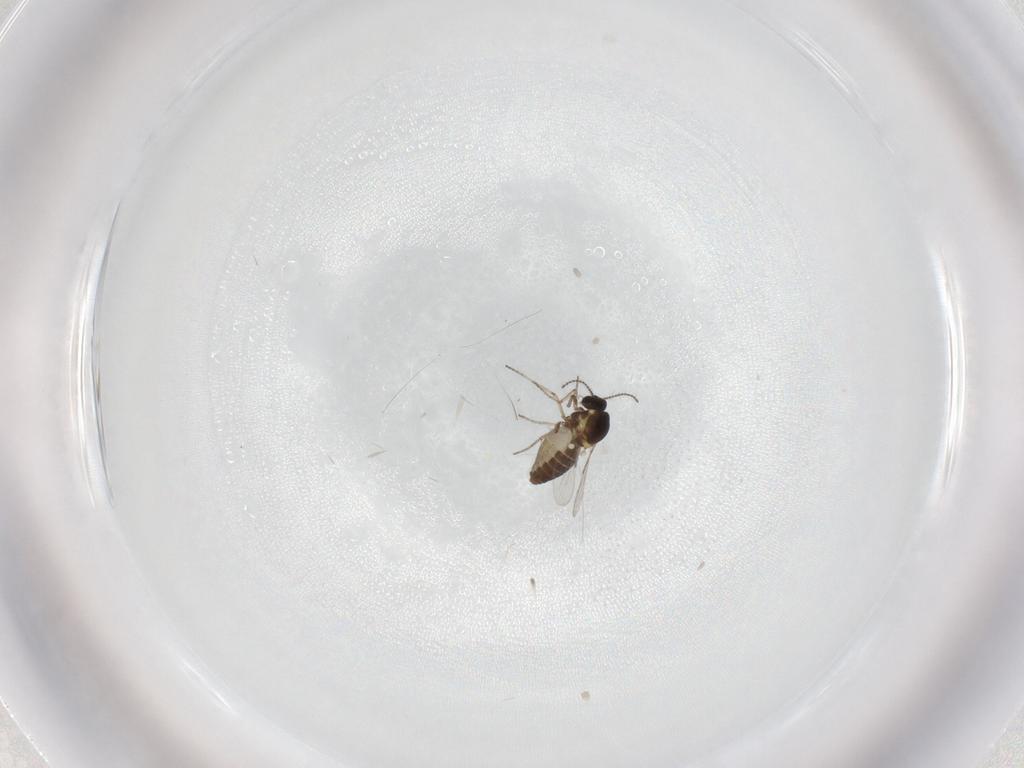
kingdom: Animalia
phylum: Arthropoda
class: Insecta
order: Diptera
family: Ceratopogonidae
